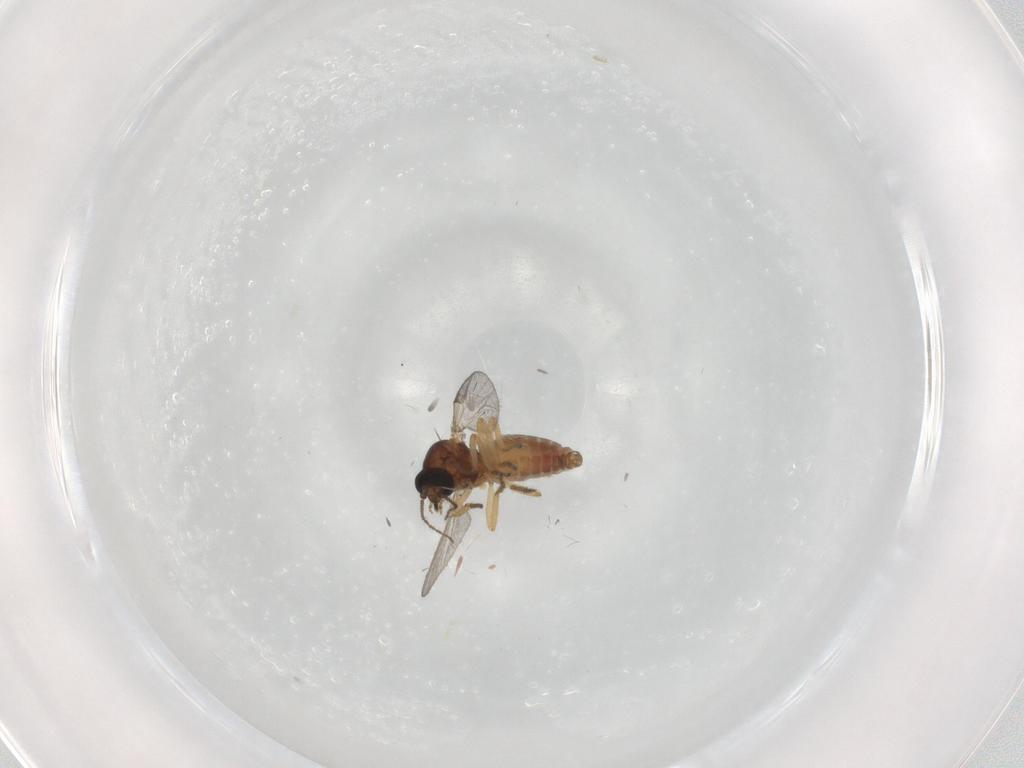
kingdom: Animalia
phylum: Arthropoda
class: Insecta
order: Diptera
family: Ceratopogonidae
